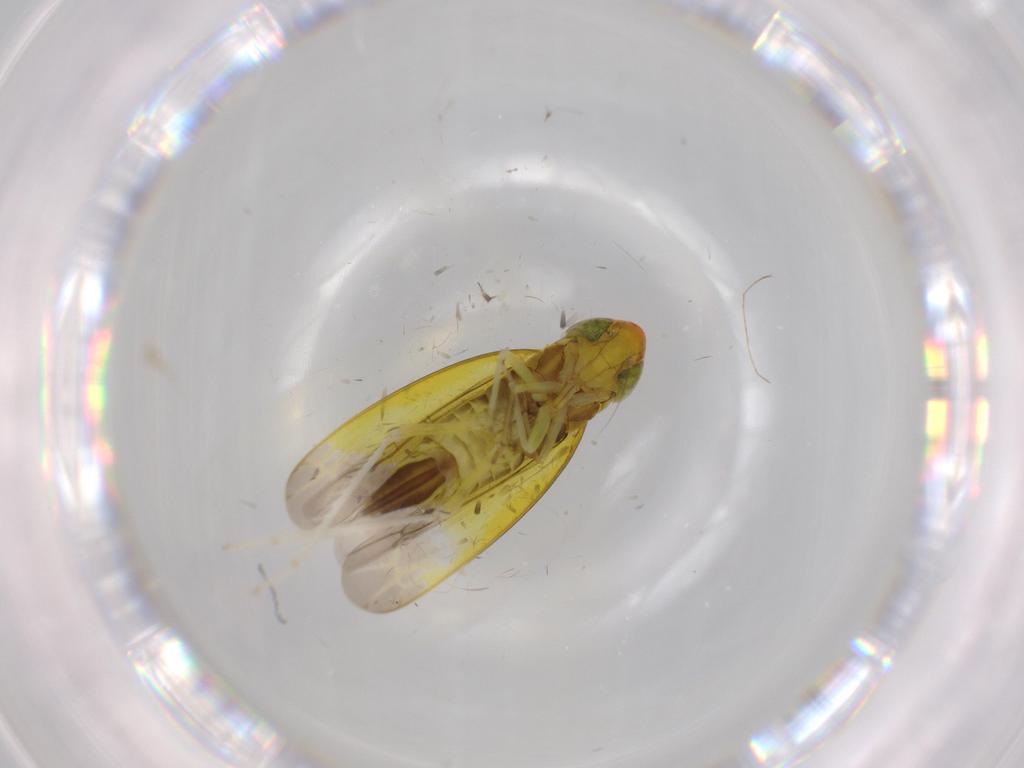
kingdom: Animalia
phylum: Arthropoda
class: Insecta
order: Hemiptera
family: Cicadellidae
